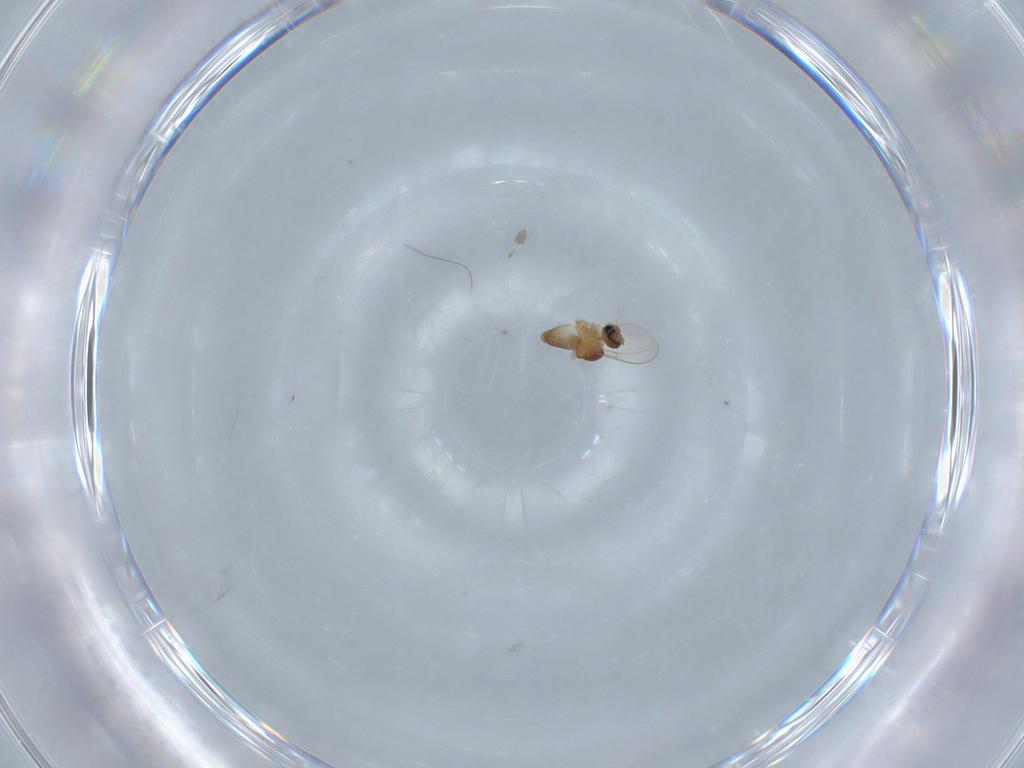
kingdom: Animalia
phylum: Arthropoda
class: Insecta
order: Diptera
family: Cecidomyiidae
